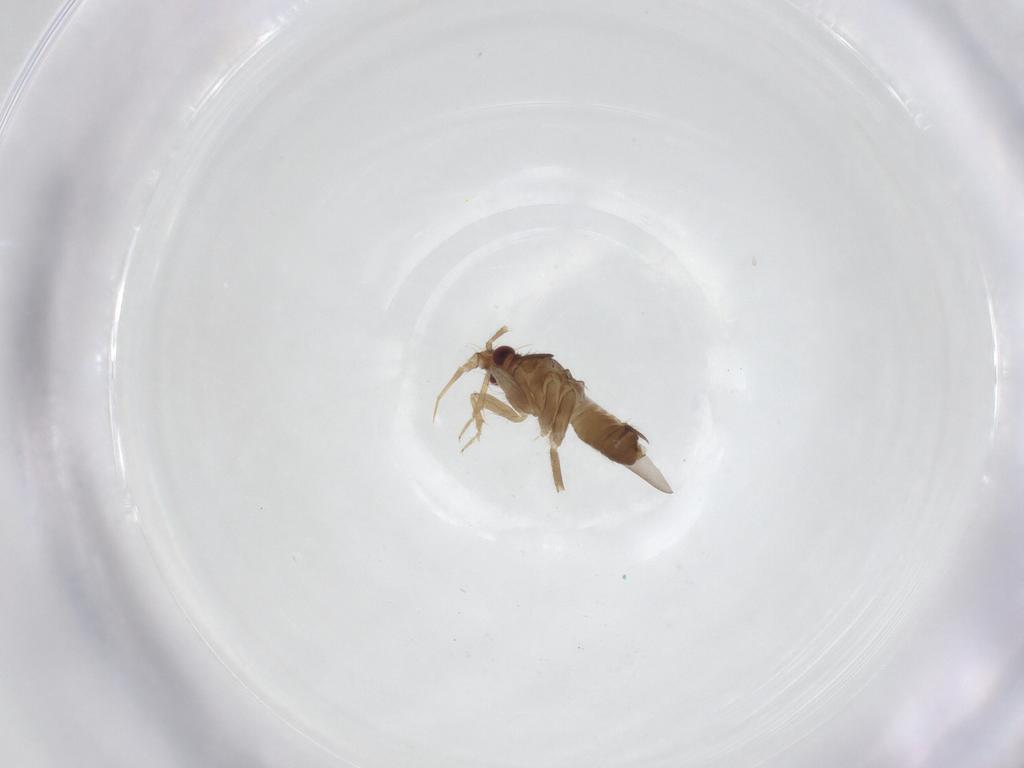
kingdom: Animalia
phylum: Arthropoda
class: Insecta
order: Hemiptera
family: Ceratocombidae
